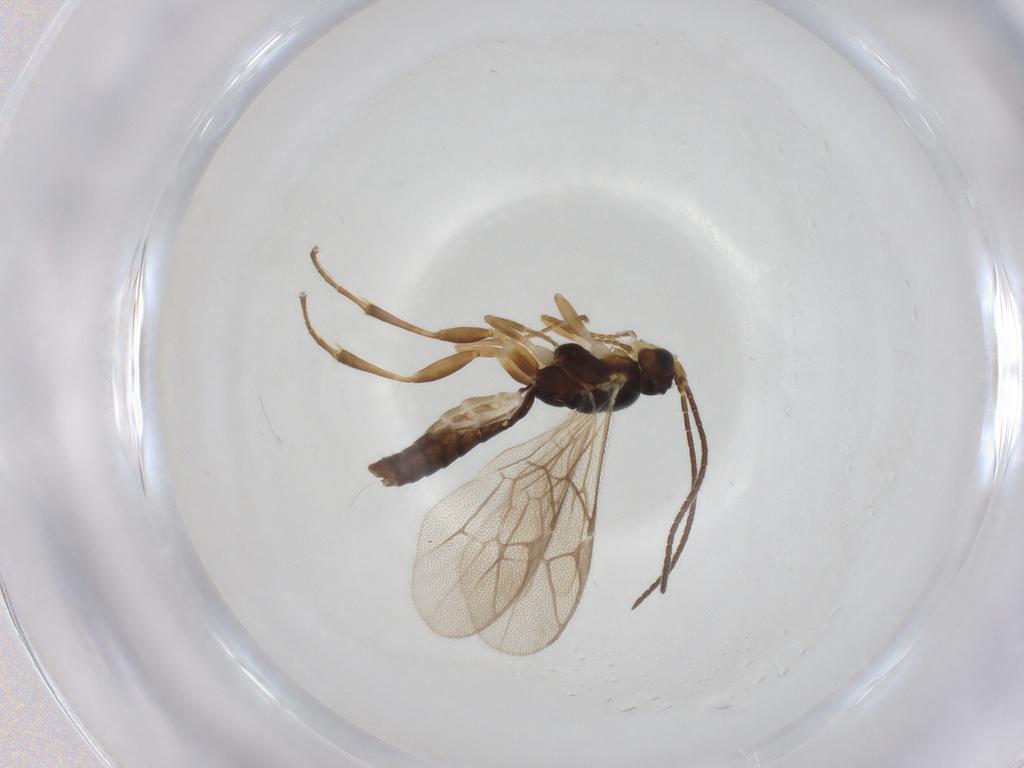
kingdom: Animalia
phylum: Arthropoda
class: Insecta
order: Hymenoptera
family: Ichneumonidae
